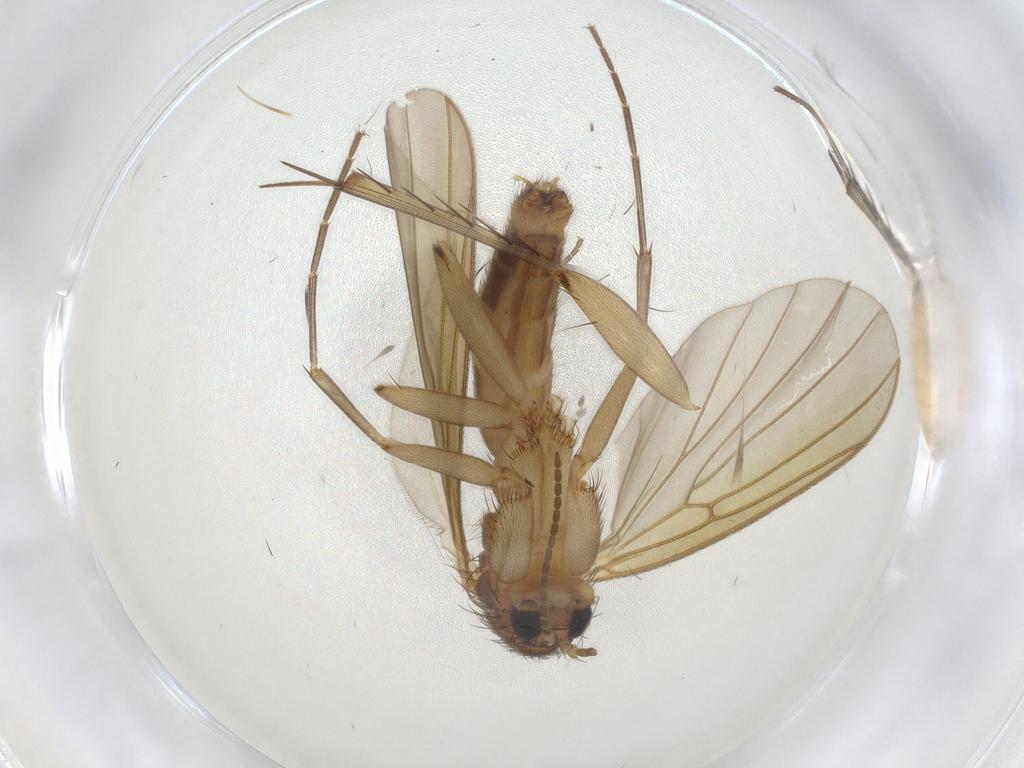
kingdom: Animalia
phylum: Arthropoda
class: Insecta
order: Diptera
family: Mycetophilidae
